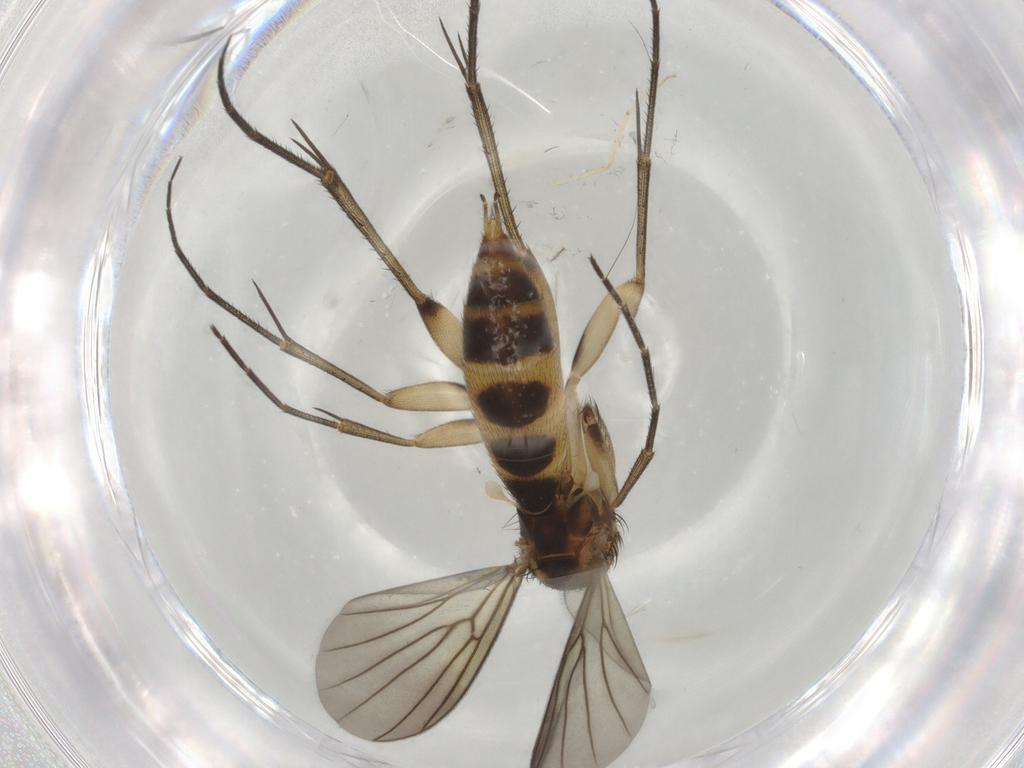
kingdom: Animalia
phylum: Arthropoda
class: Insecta
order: Diptera
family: Mycetophilidae
